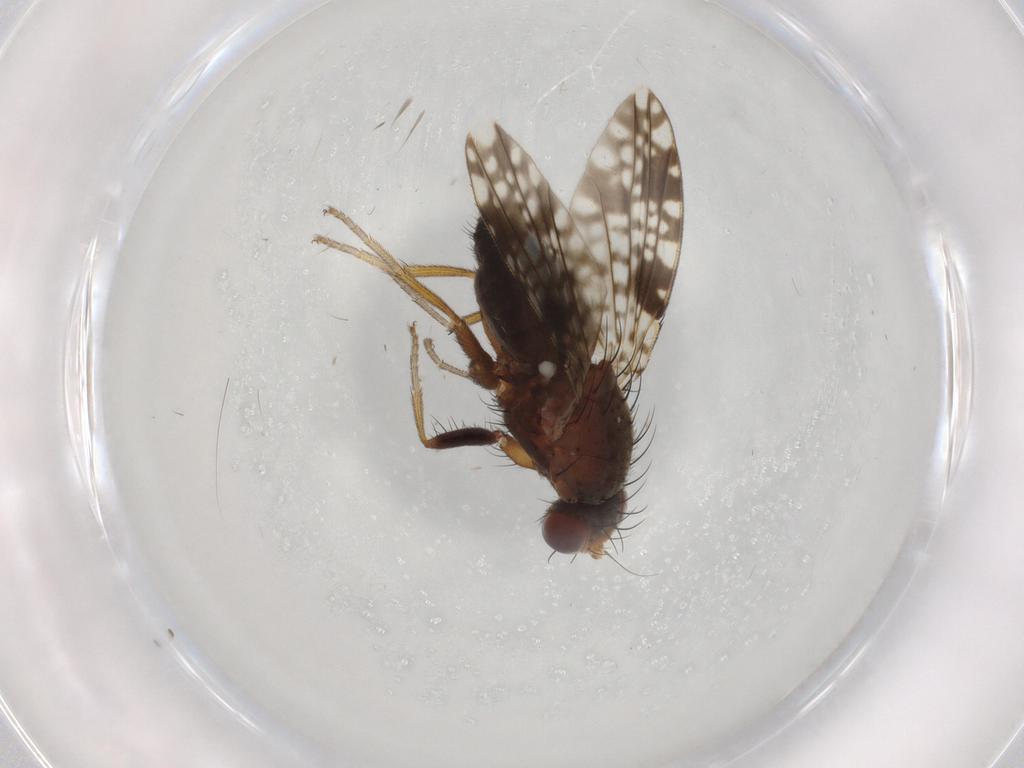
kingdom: Animalia
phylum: Arthropoda
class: Insecta
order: Diptera
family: Tephritidae
